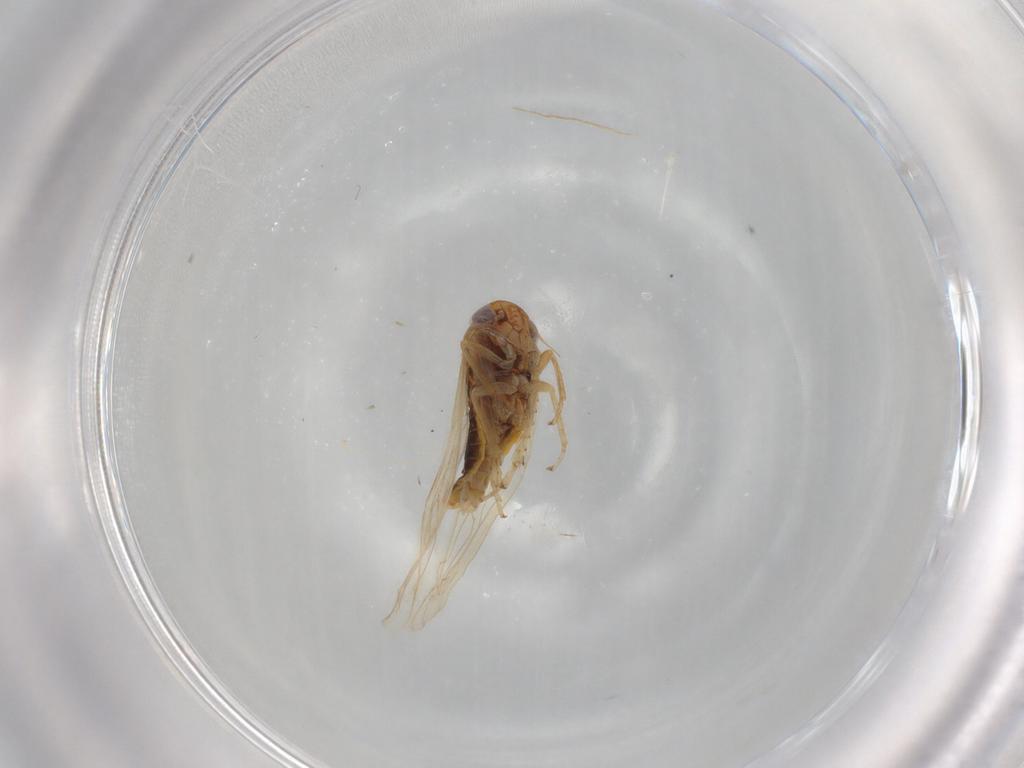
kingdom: Animalia
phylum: Arthropoda
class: Insecta
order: Hemiptera
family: Cicadellidae
